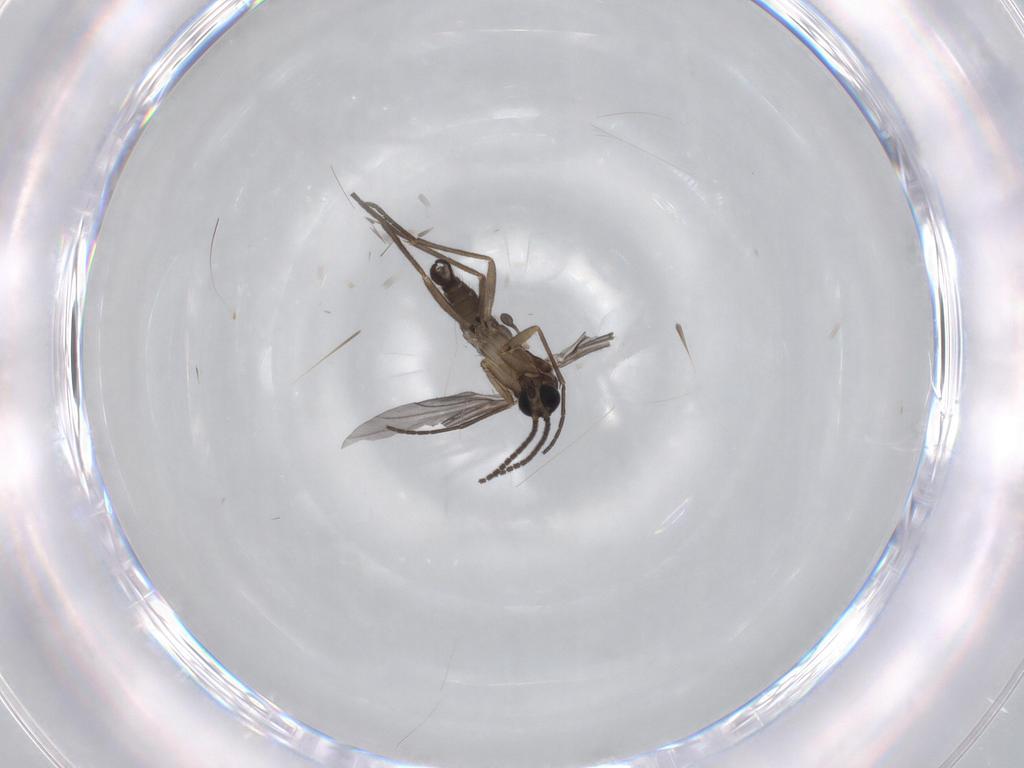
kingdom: Animalia
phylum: Arthropoda
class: Insecta
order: Diptera
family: Sciaridae
